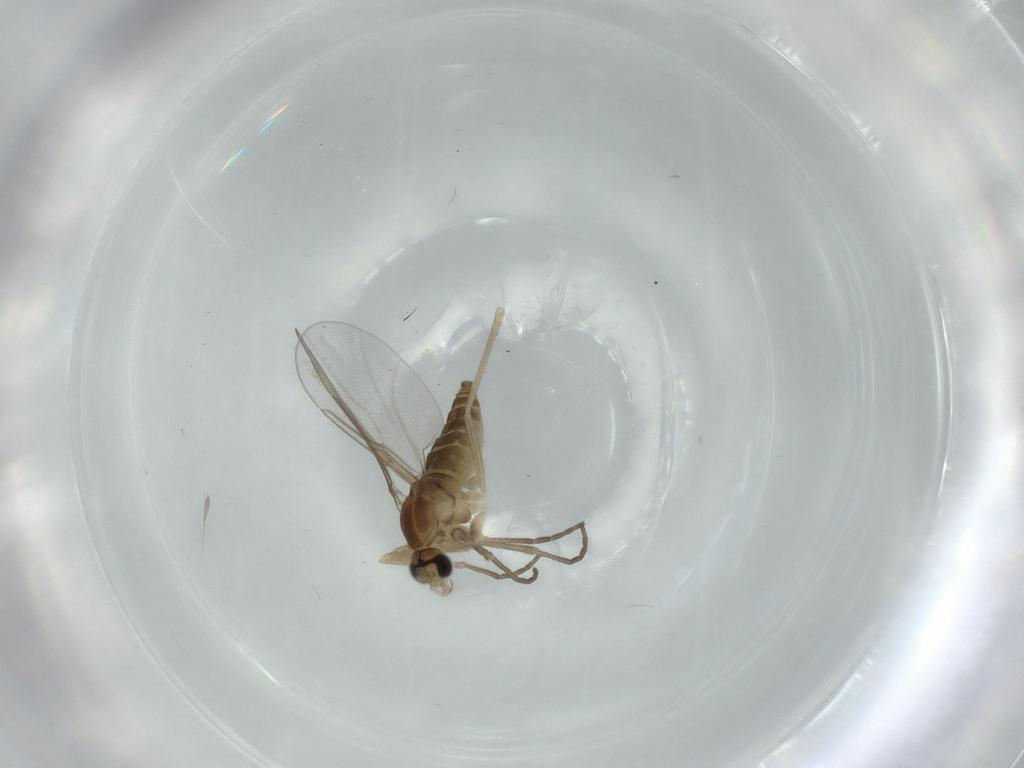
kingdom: Animalia
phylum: Arthropoda
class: Insecta
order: Diptera
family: Cecidomyiidae
